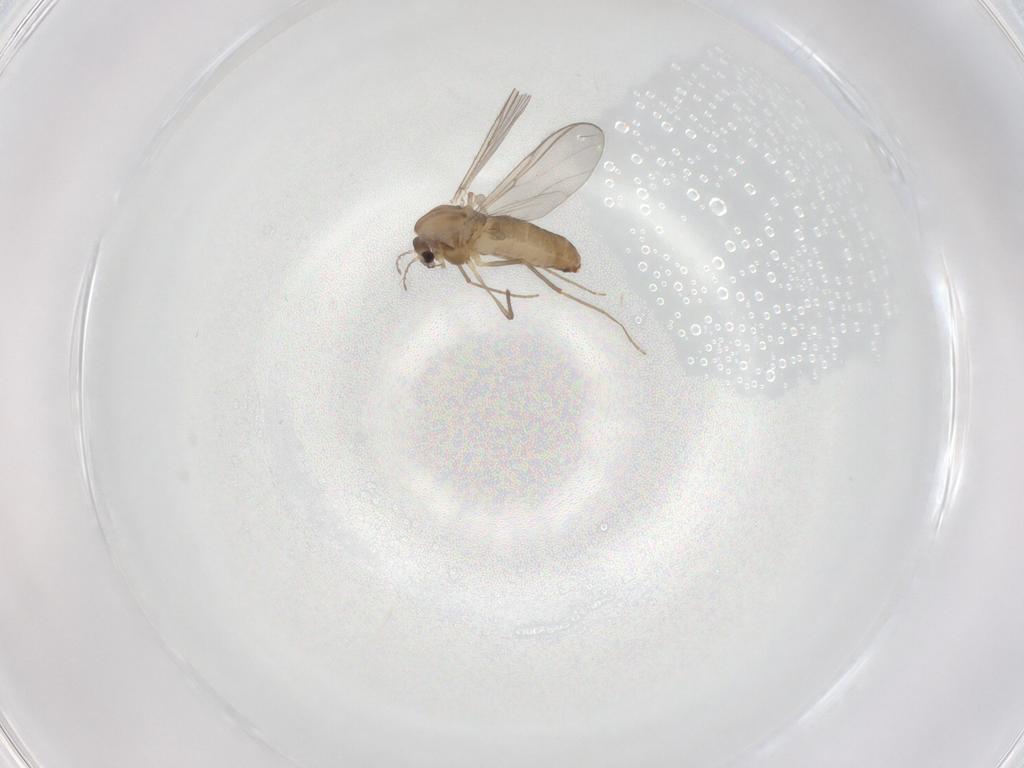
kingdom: Animalia
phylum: Arthropoda
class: Insecta
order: Diptera
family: Chironomidae
